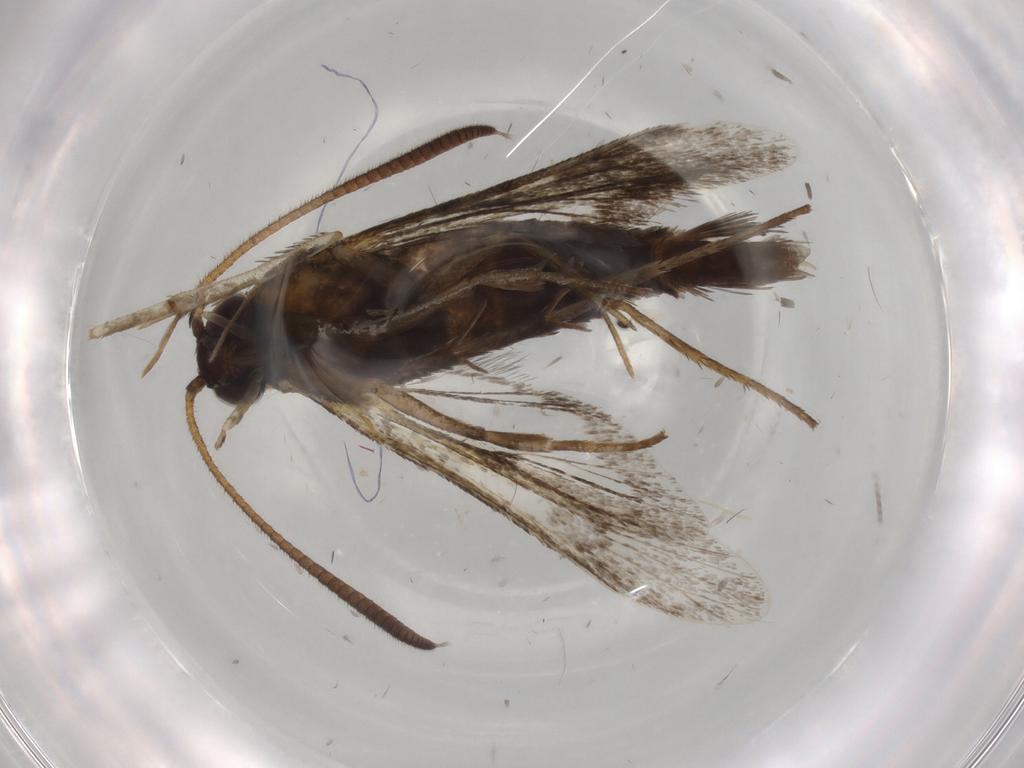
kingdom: Animalia
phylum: Arthropoda
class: Insecta
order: Lepidoptera
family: Sesiidae
